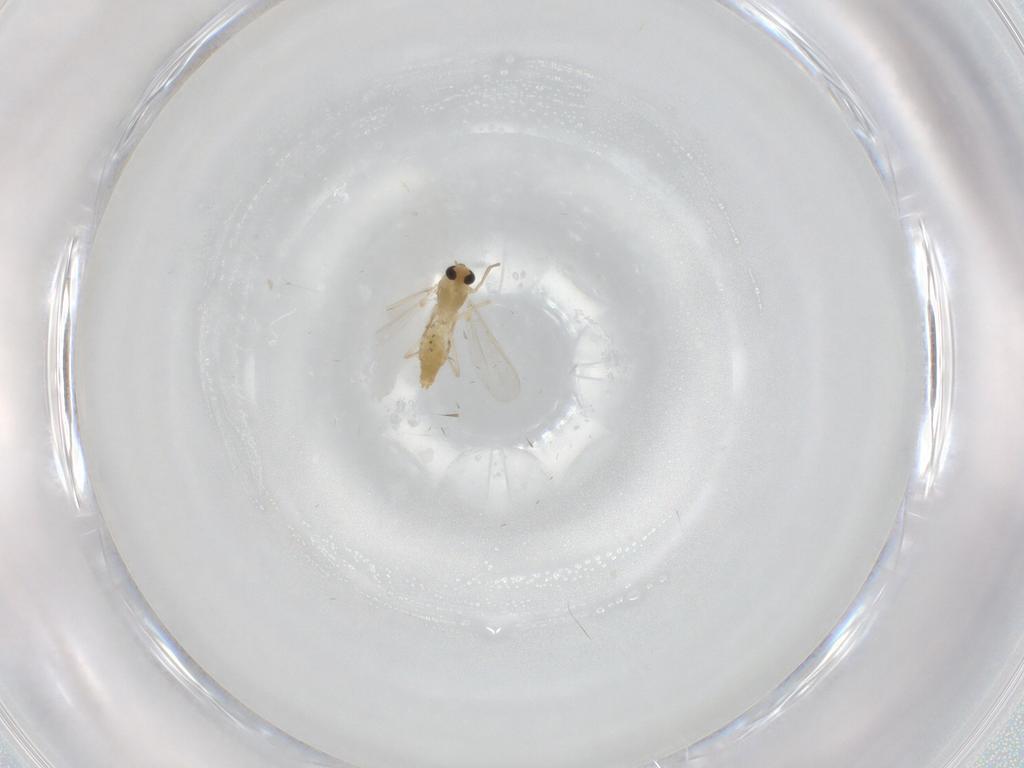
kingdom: Animalia
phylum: Arthropoda
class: Insecta
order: Diptera
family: Chironomidae
